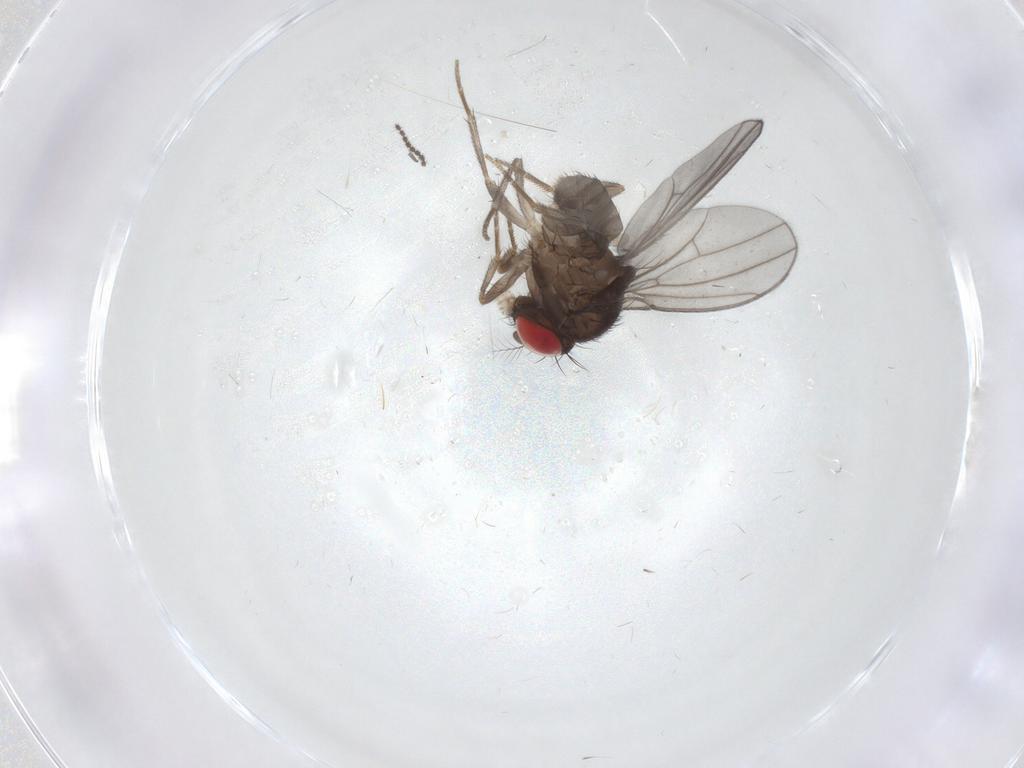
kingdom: Animalia
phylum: Arthropoda
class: Insecta
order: Diptera
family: Drosophilidae
